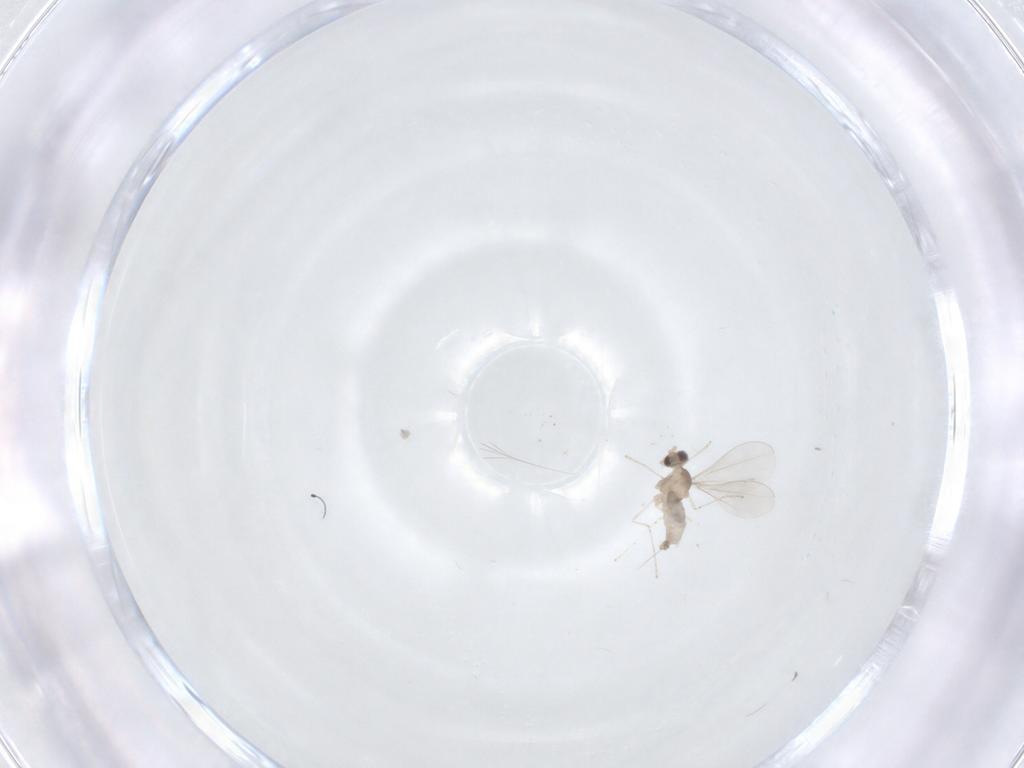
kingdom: Animalia
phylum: Arthropoda
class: Insecta
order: Diptera
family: Cecidomyiidae
